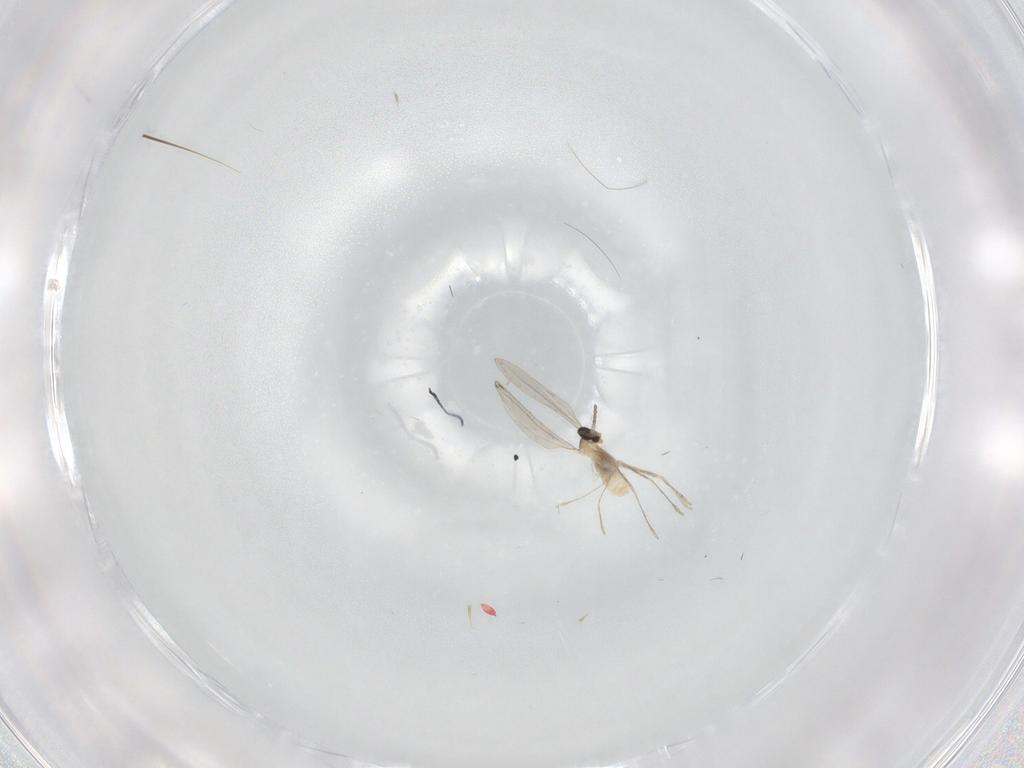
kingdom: Animalia
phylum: Arthropoda
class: Insecta
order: Diptera
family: Cecidomyiidae
